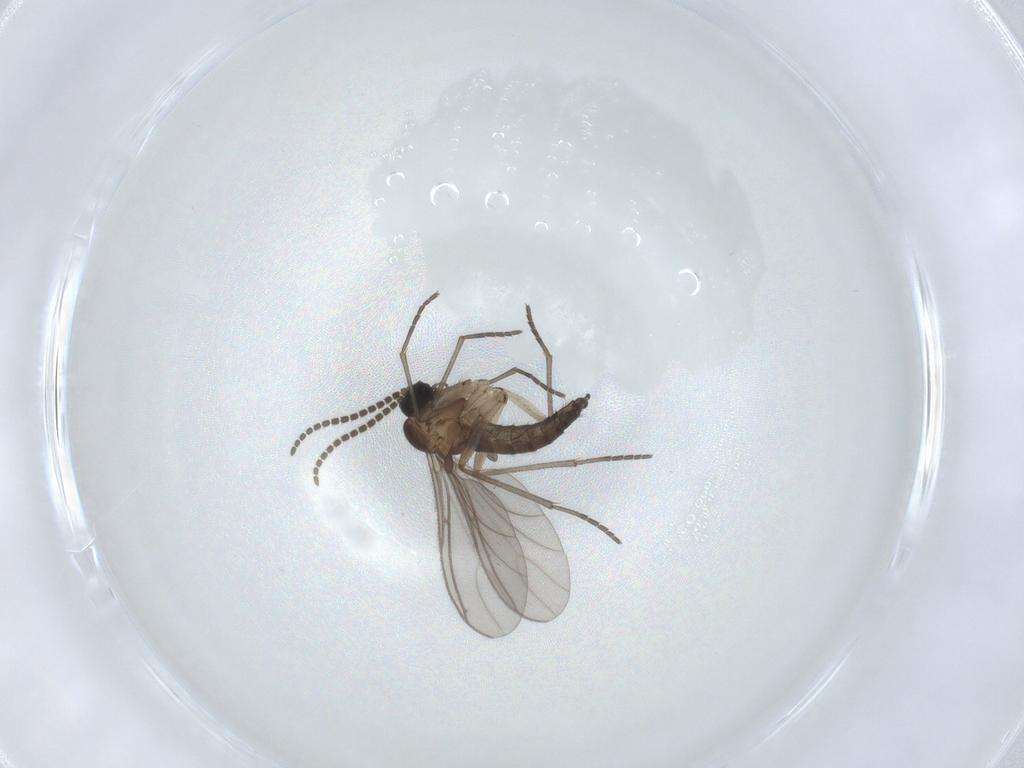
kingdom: Animalia
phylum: Arthropoda
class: Insecta
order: Diptera
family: Sciaridae
